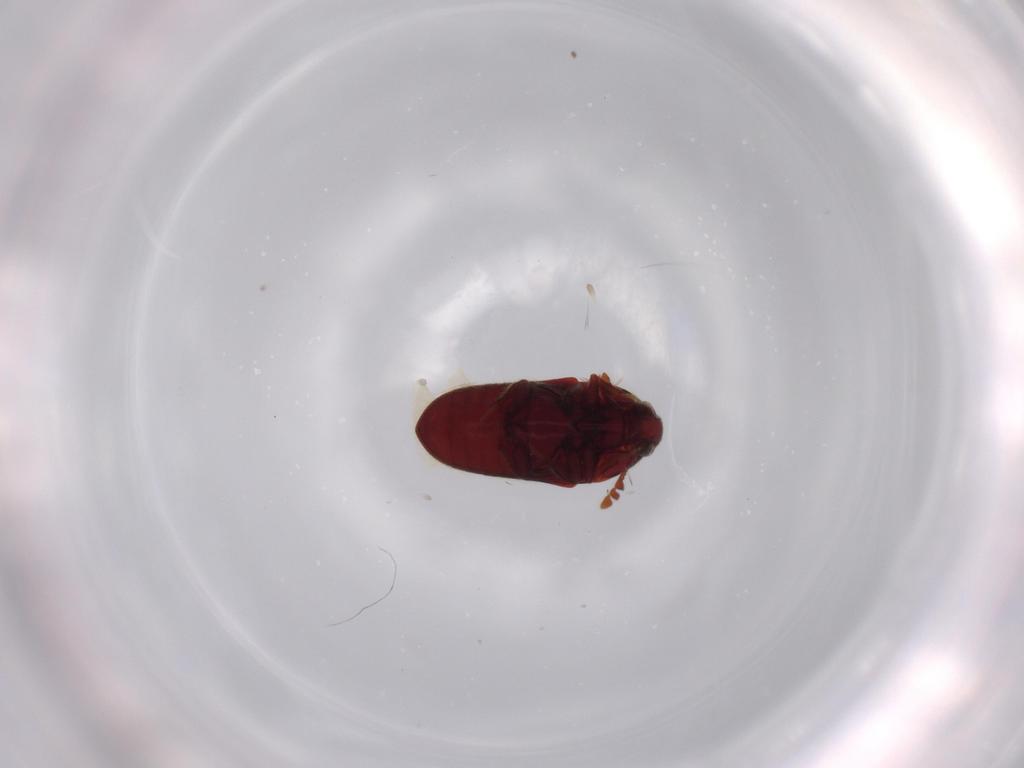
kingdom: Animalia
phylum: Arthropoda
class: Insecta
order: Coleoptera
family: Throscidae
